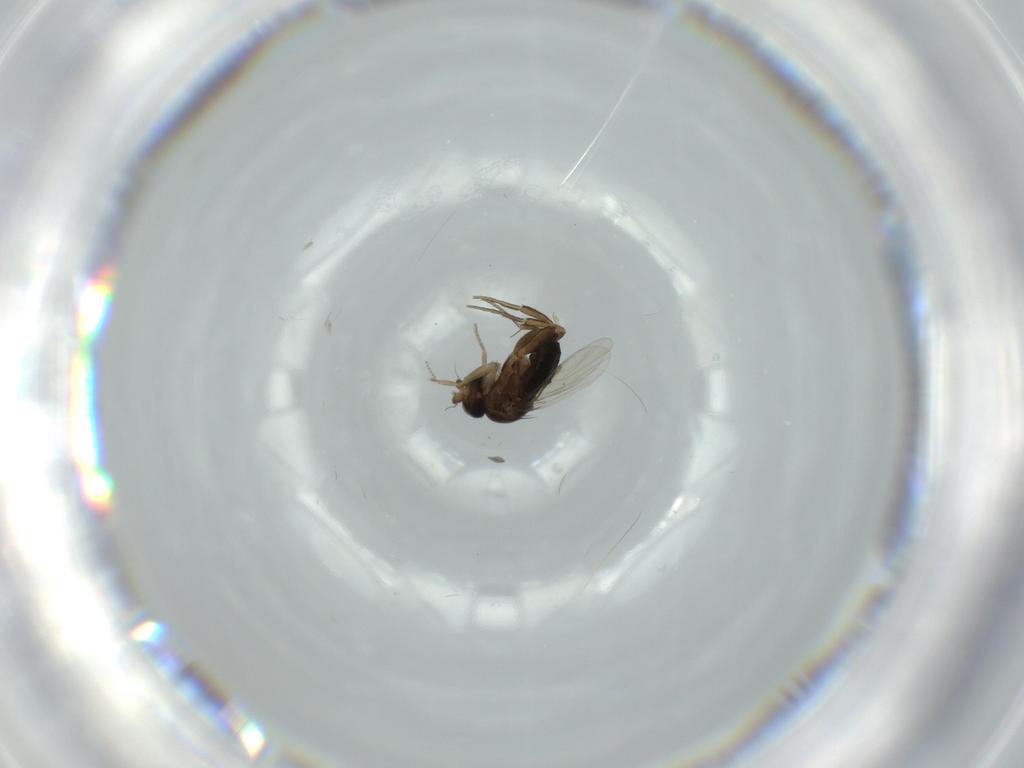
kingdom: Animalia
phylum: Arthropoda
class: Insecta
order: Diptera
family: Phoridae
